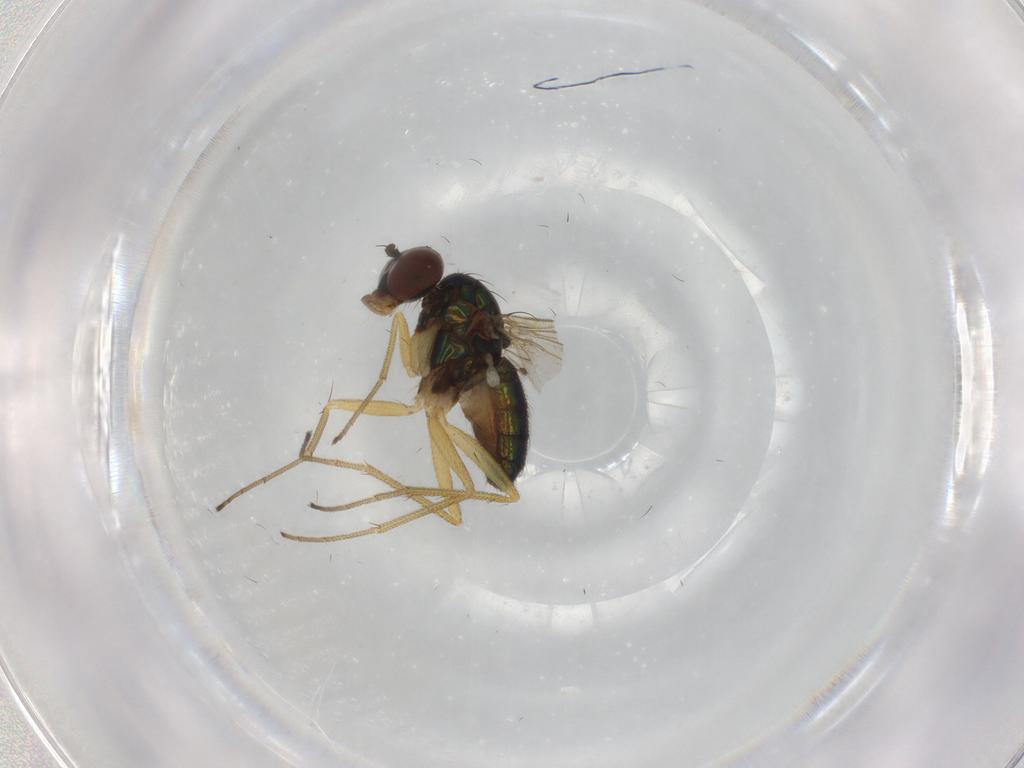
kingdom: Animalia
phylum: Arthropoda
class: Insecta
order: Diptera
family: Dolichopodidae
